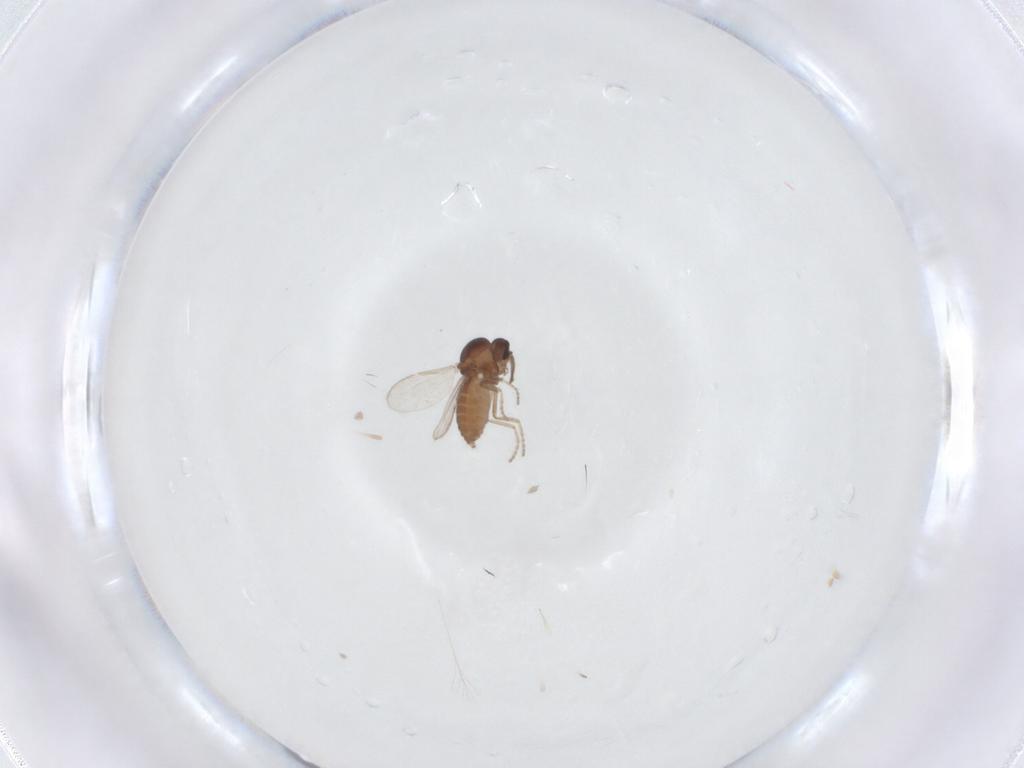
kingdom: Animalia
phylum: Arthropoda
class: Insecta
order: Diptera
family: Ceratopogonidae
